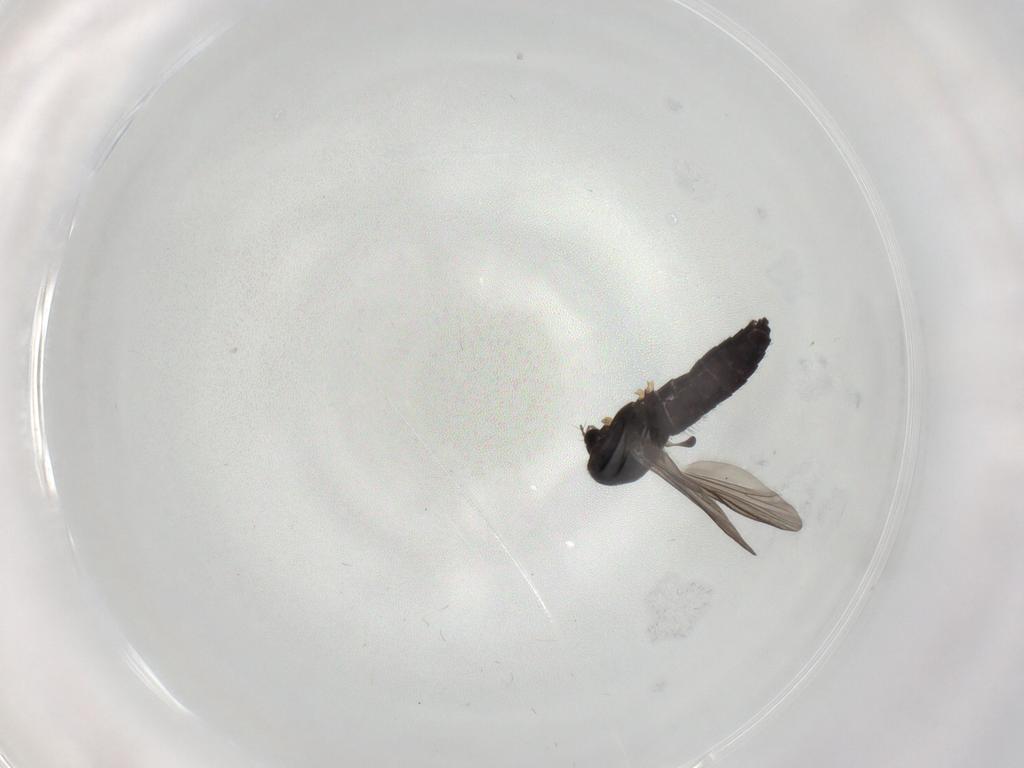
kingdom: Animalia
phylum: Arthropoda
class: Insecta
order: Diptera
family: Chironomidae
